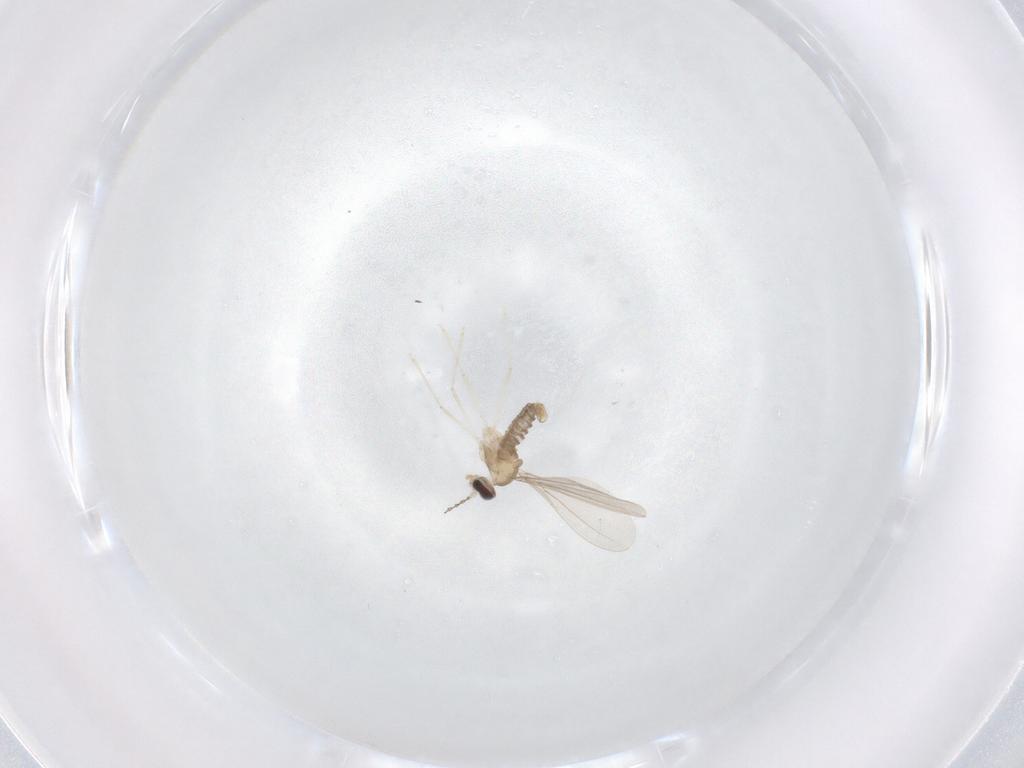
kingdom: Animalia
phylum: Arthropoda
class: Insecta
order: Diptera
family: Cecidomyiidae
